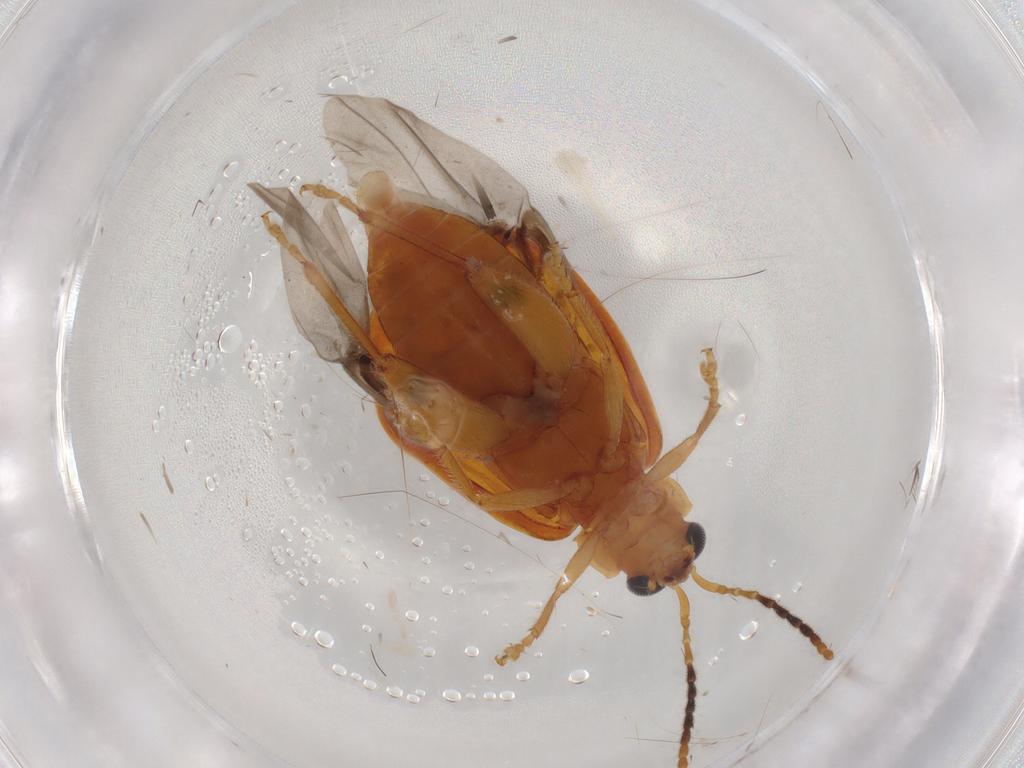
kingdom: Animalia
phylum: Arthropoda
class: Insecta
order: Coleoptera
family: Chrysomelidae
